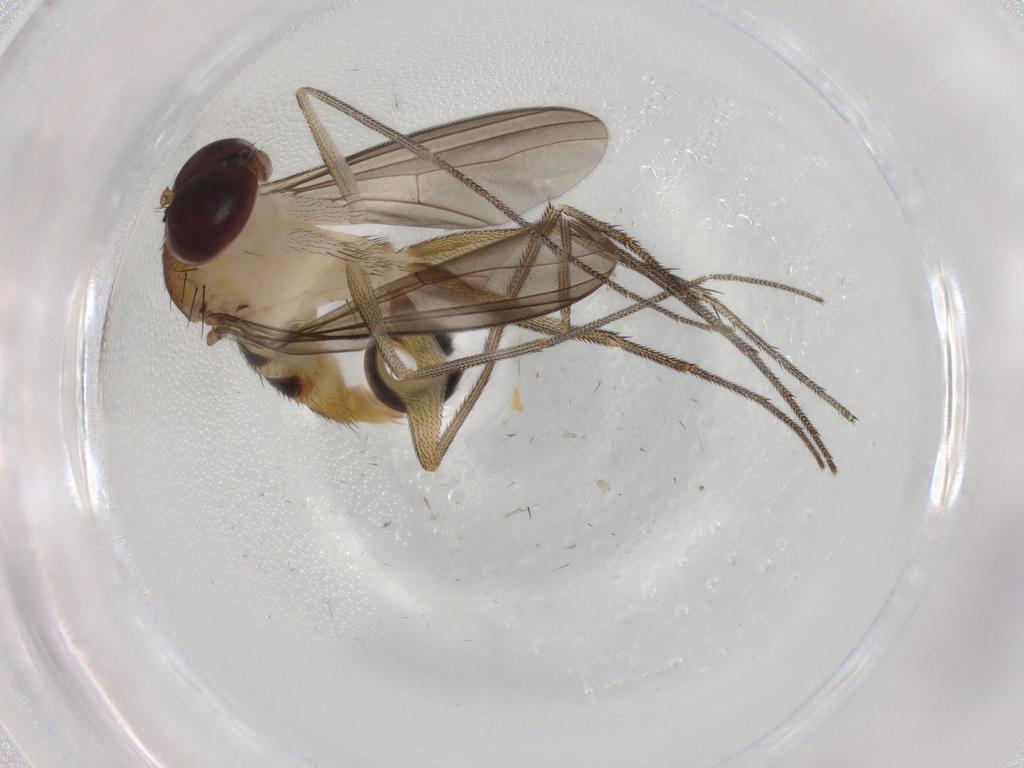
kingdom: Animalia
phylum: Arthropoda
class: Insecta
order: Diptera
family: Dolichopodidae
